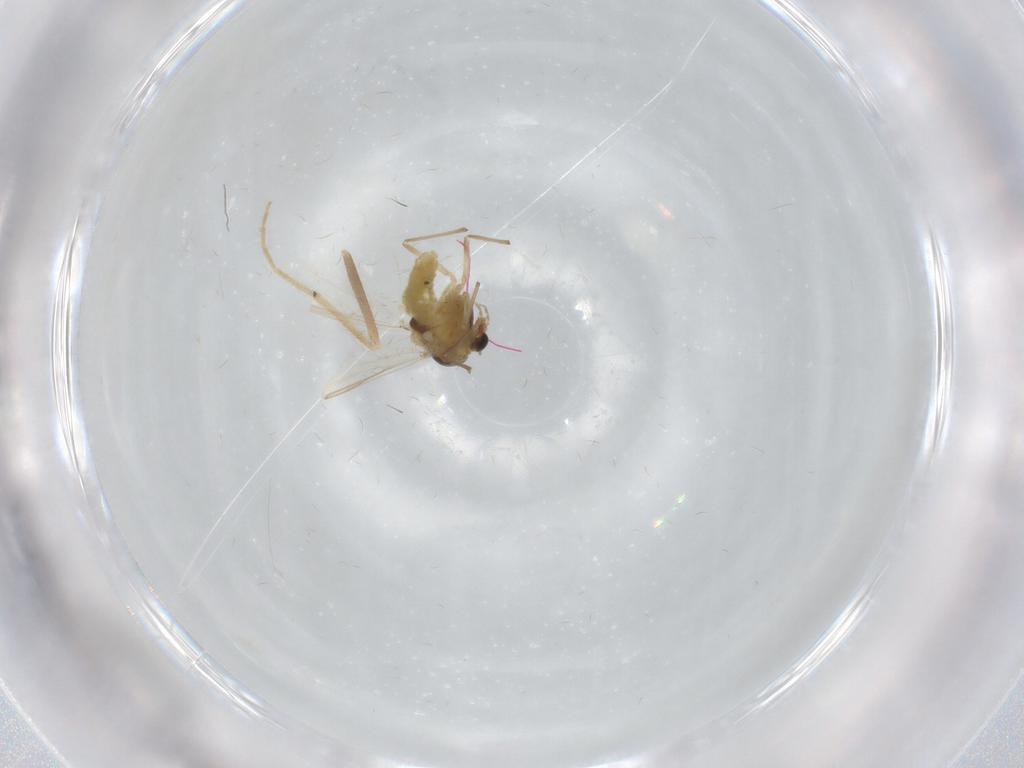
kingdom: Animalia
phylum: Arthropoda
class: Insecta
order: Diptera
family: Chironomidae
